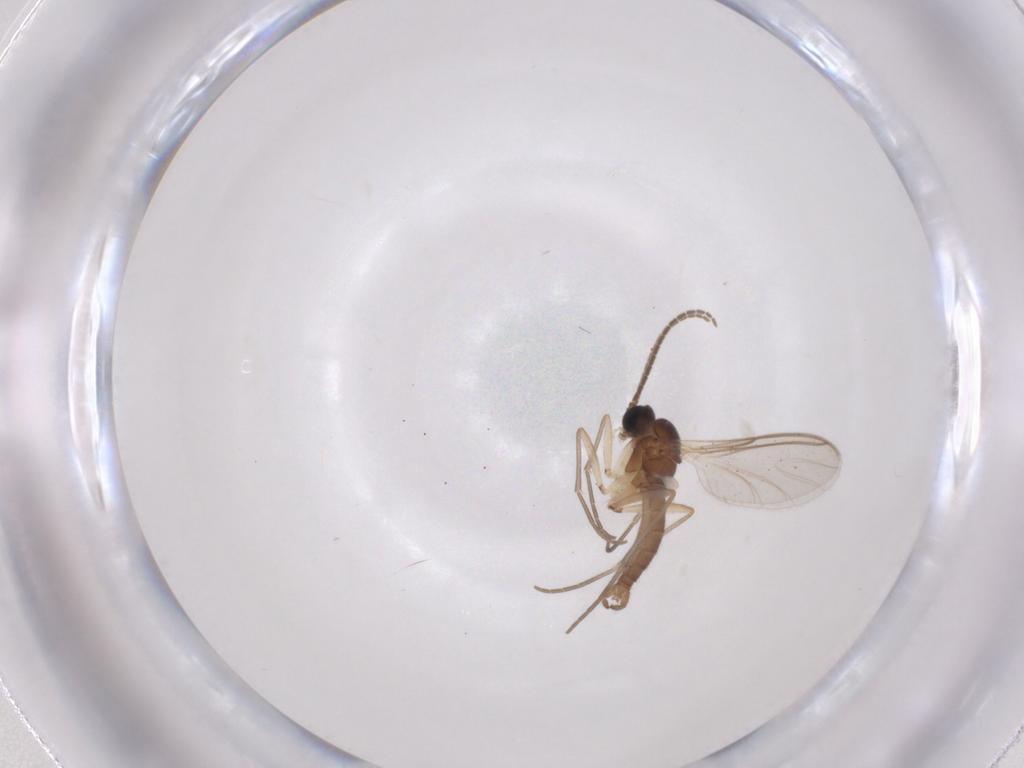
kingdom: Animalia
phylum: Arthropoda
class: Insecta
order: Diptera
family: Sciaridae
